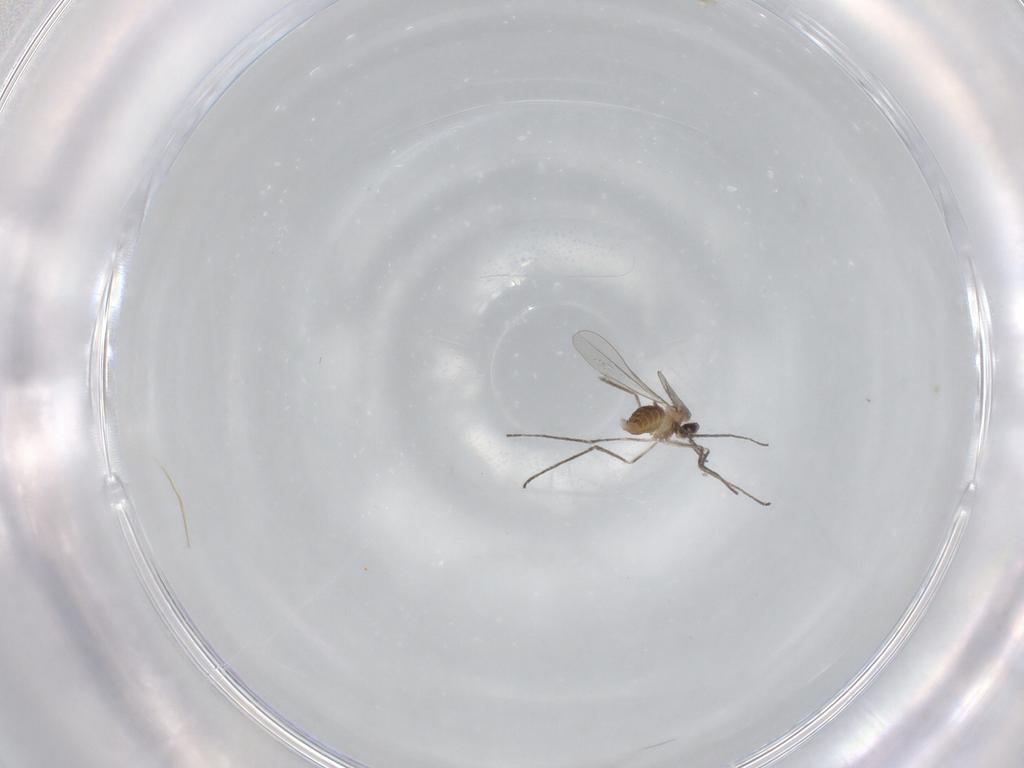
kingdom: Animalia
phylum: Arthropoda
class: Insecta
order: Diptera
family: Cecidomyiidae
